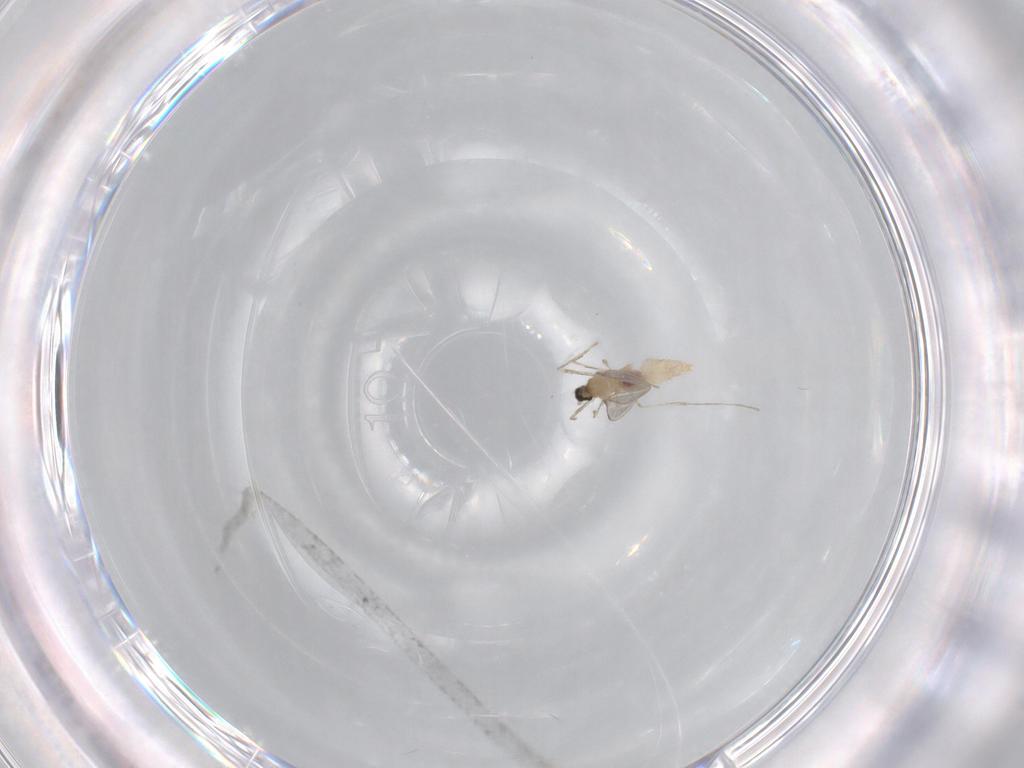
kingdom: Animalia
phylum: Arthropoda
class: Insecta
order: Diptera
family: Cecidomyiidae
